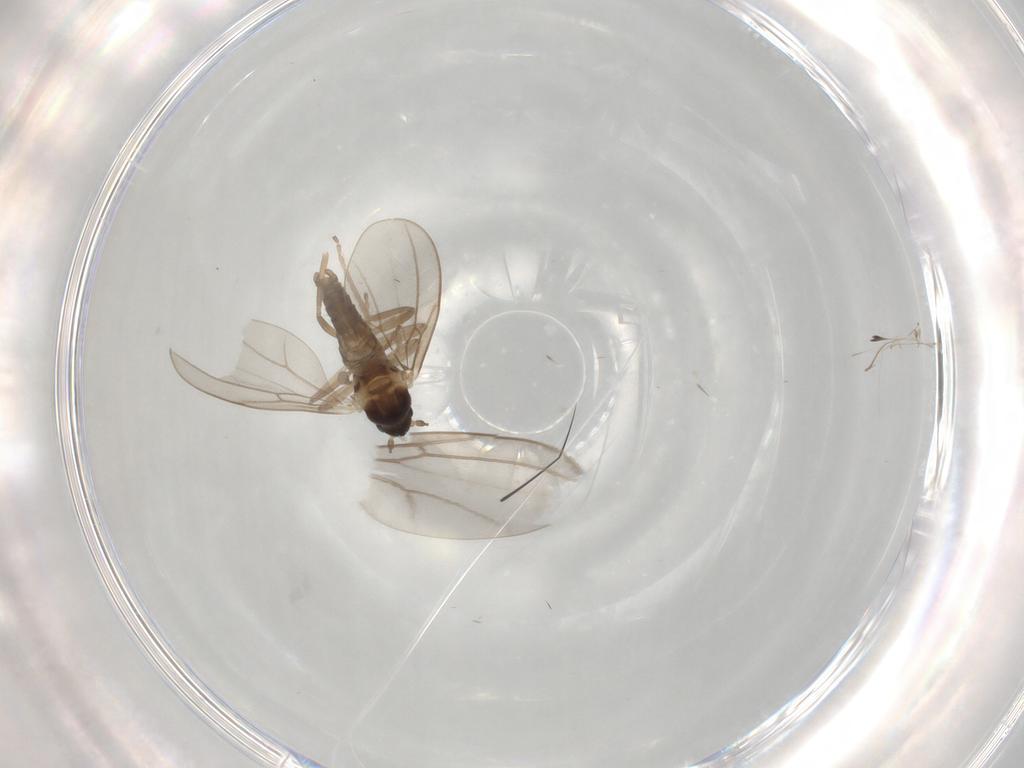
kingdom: Animalia
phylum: Arthropoda
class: Insecta
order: Diptera
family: Cecidomyiidae
